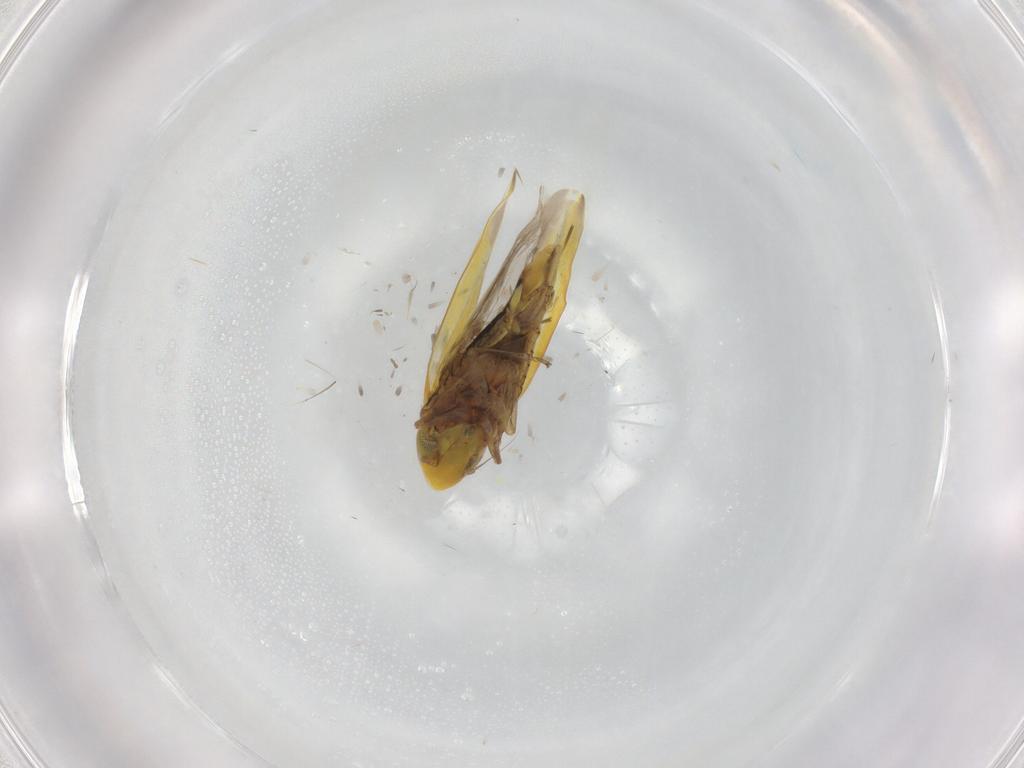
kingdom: Animalia
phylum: Arthropoda
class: Insecta
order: Hemiptera
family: Cicadellidae
